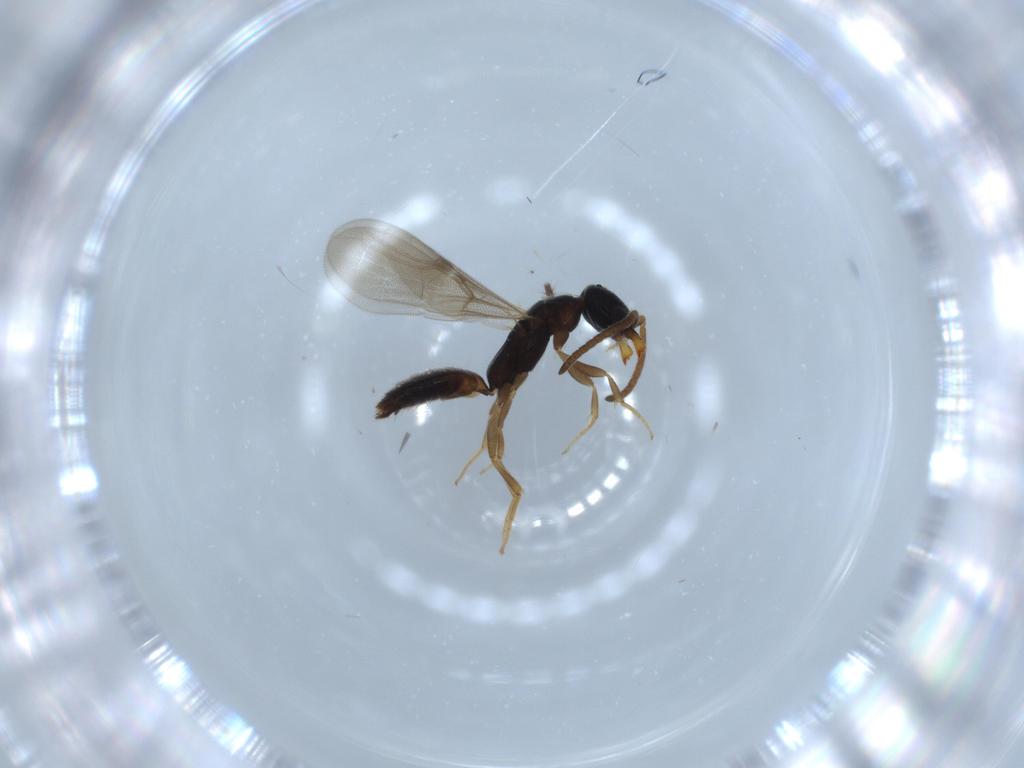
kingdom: Animalia
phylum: Arthropoda
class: Insecta
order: Hymenoptera
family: Bethylidae
